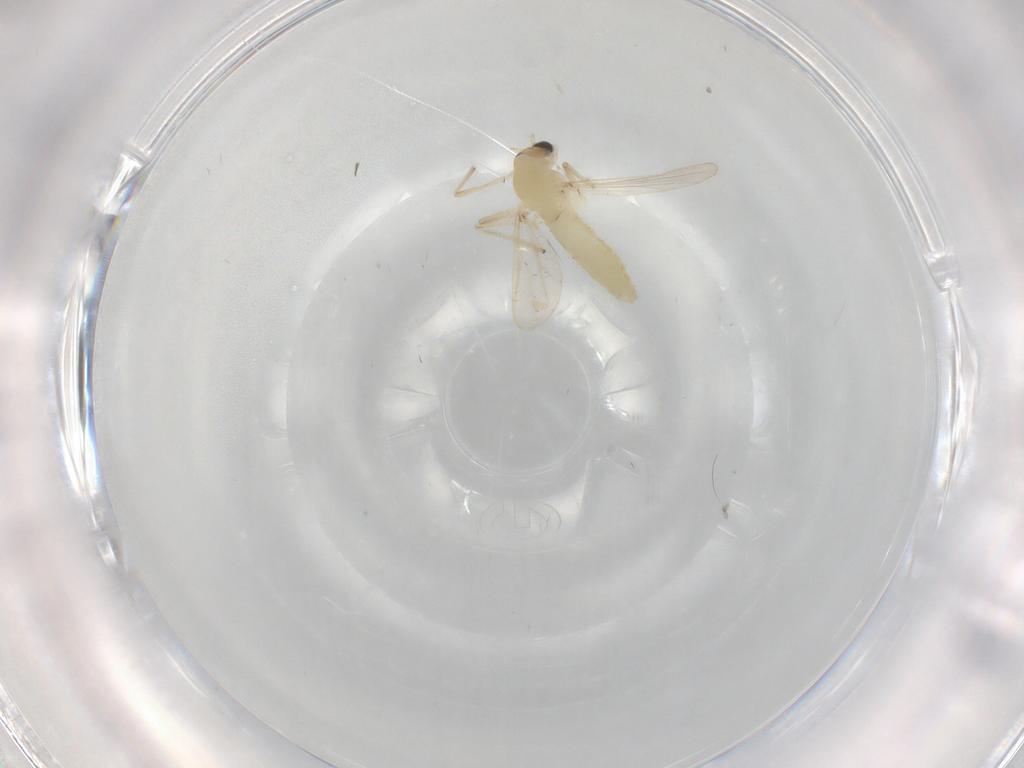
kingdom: Animalia
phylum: Arthropoda
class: Insecta
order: Diptera
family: Chironomidae
